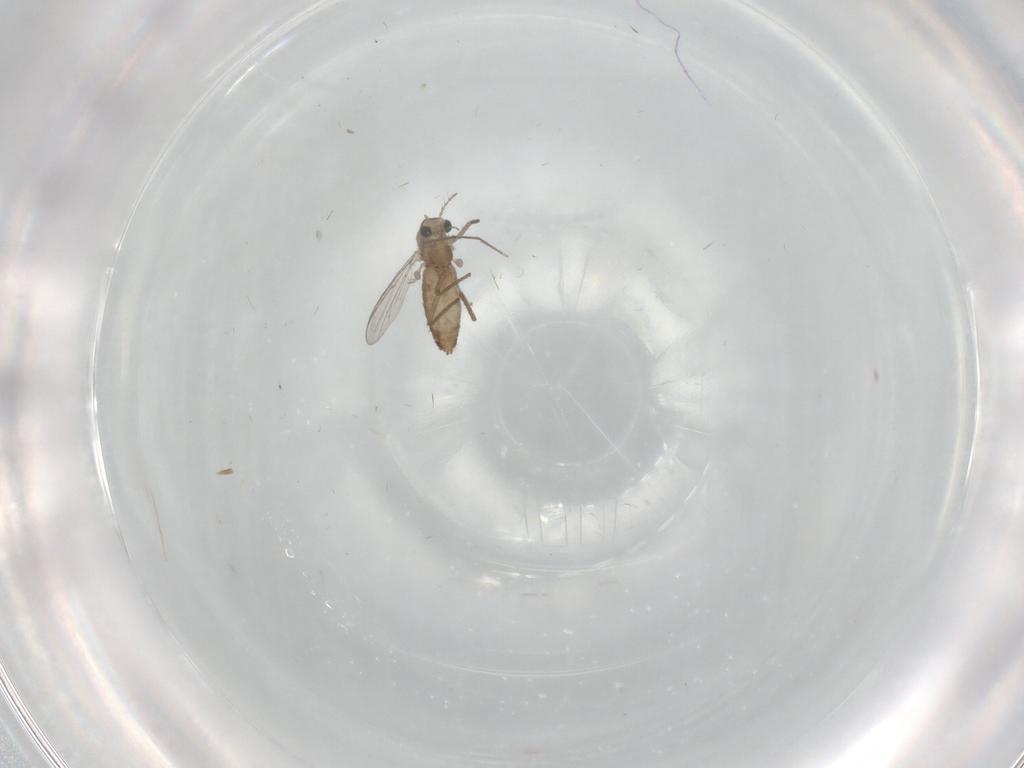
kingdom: Animalia
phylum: Arthropoda
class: Insecta
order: Diptera
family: Chironomidae
